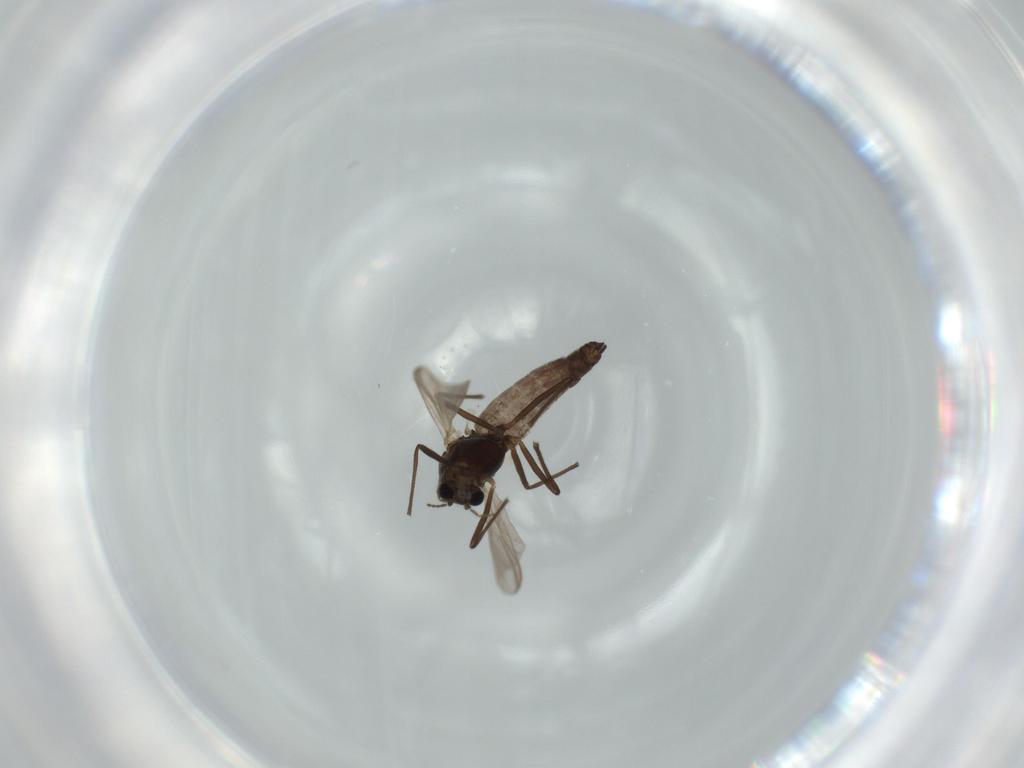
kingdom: Animalia
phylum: Arthropoda
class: Insecta
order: Diptera
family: Chironomidae
